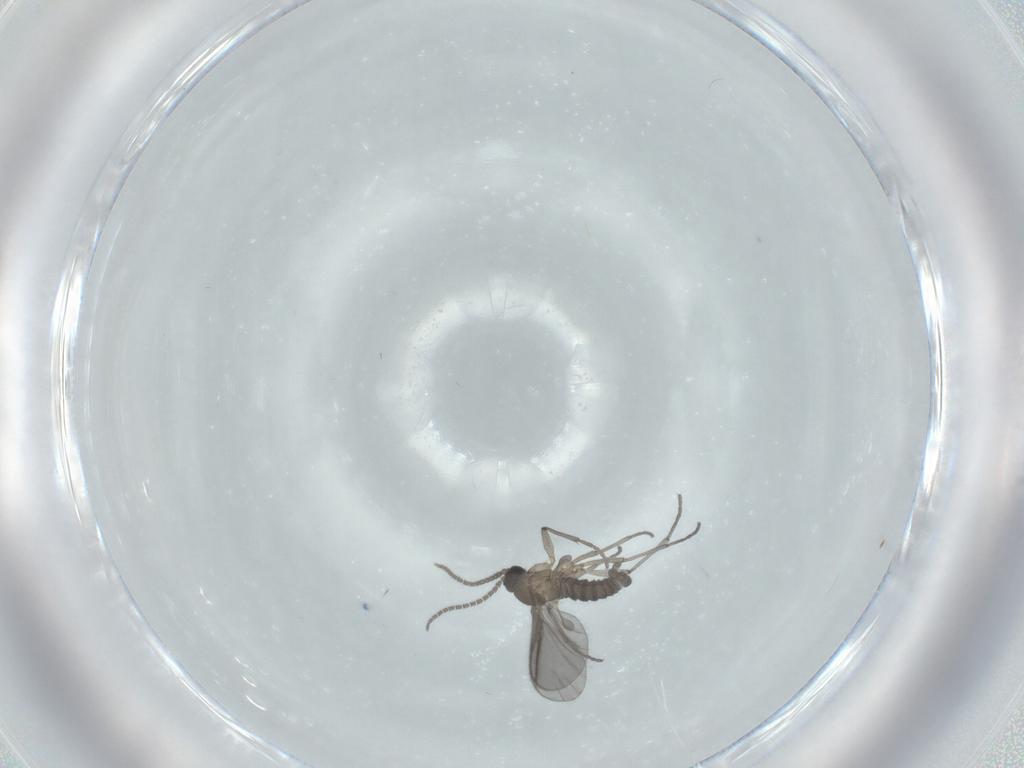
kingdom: Animalia
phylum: Arthropoda
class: Insecta
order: Diptera
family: Sciaridae
